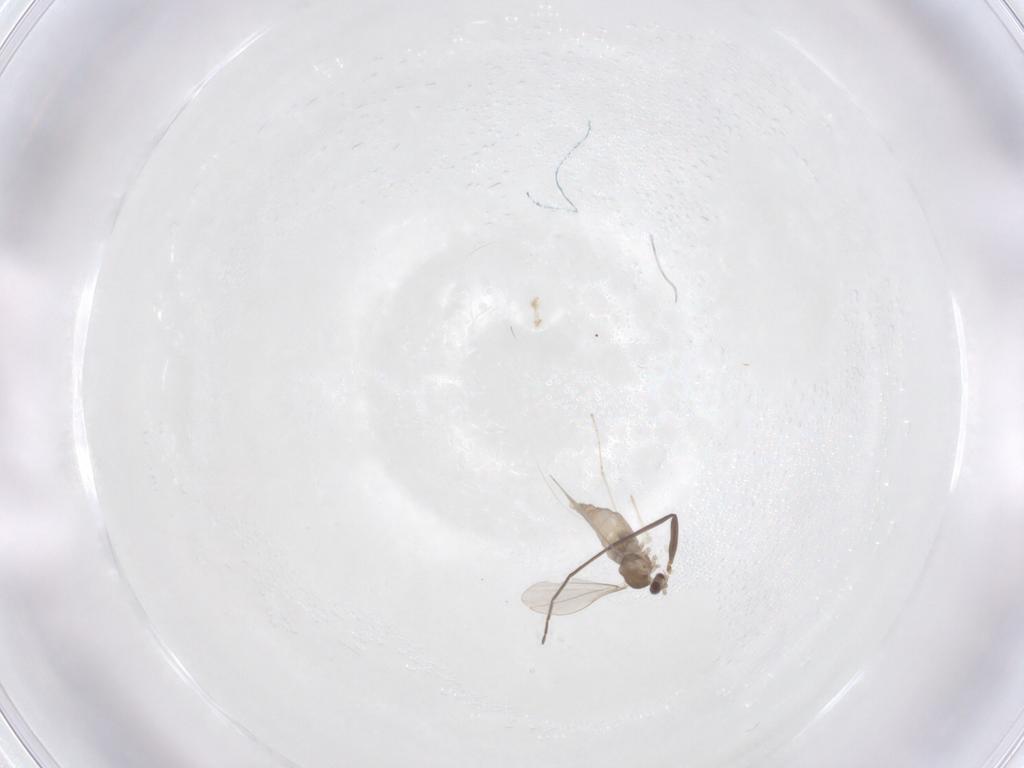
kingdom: Animalia
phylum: Arthropoda
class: Insecta
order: Diptera
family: Cecidomyiidae
